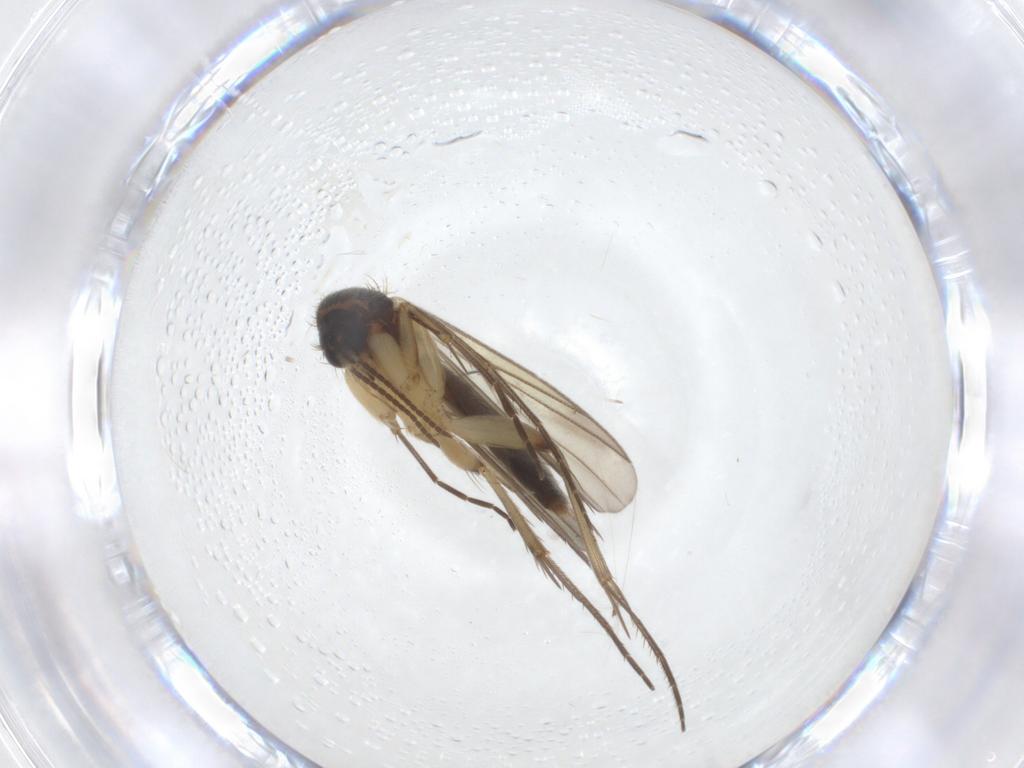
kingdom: Animalia
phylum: Arthropoda
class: Insecta
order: Diptera
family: Mycetophilidae
